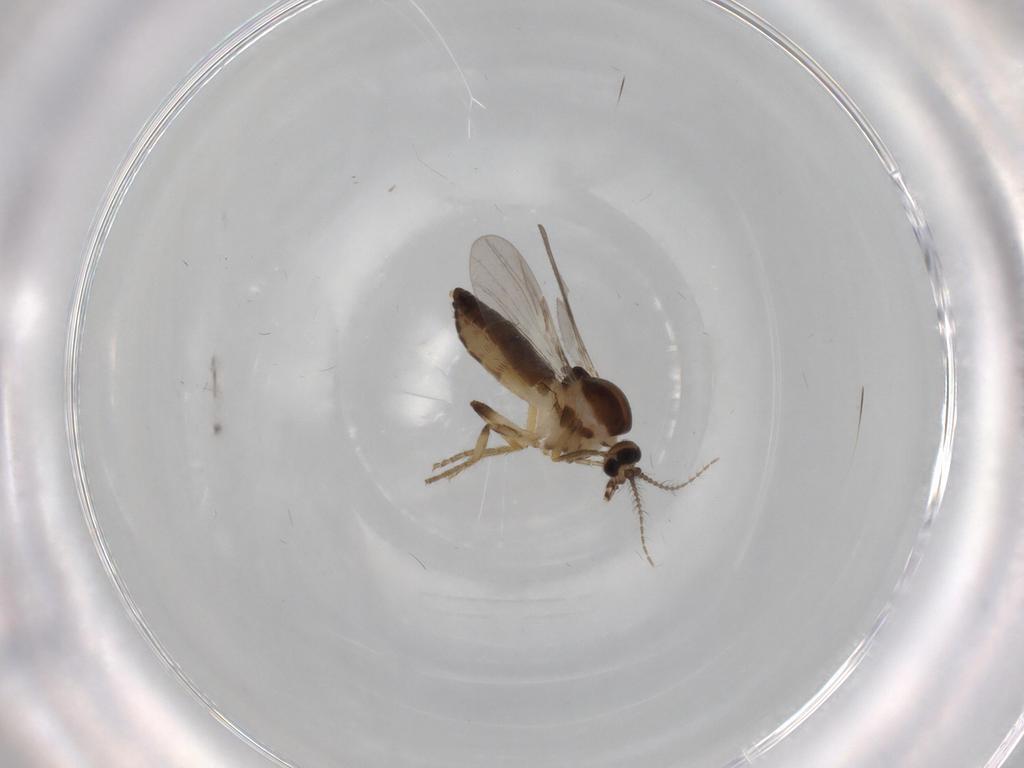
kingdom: Animalia
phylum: Arthropoda
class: Insecta
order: Diptera
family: Ceratopogonidae
